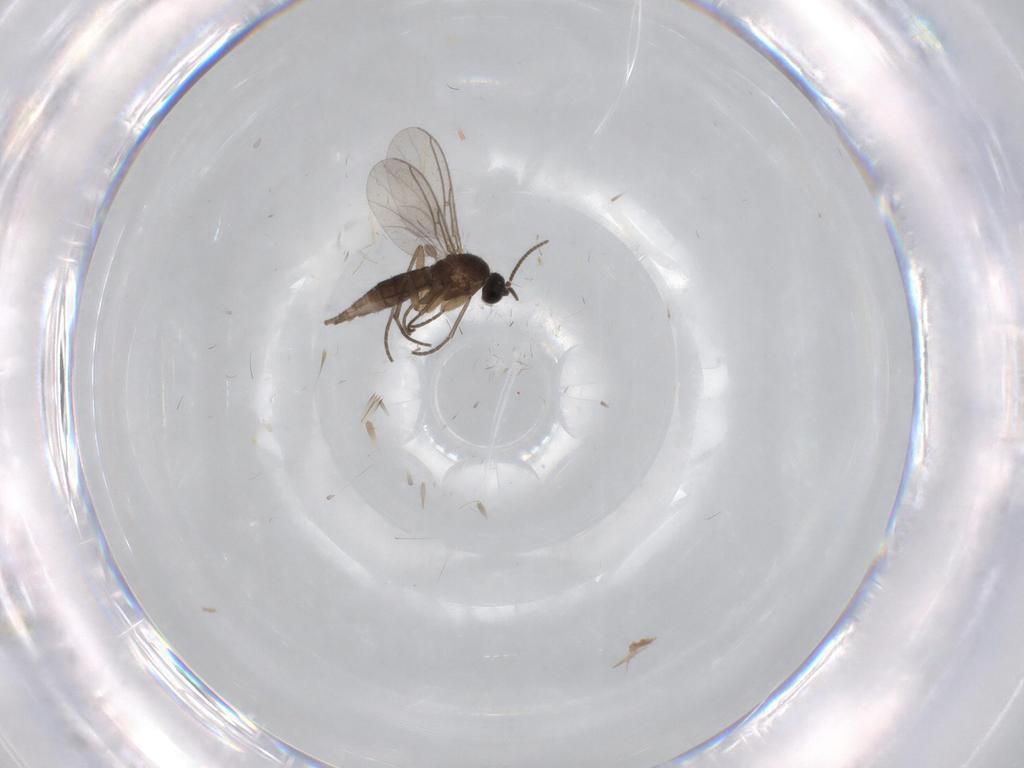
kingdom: Animalia
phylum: Arthropoda
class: Insecta
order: Diptera
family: Sciaridae
